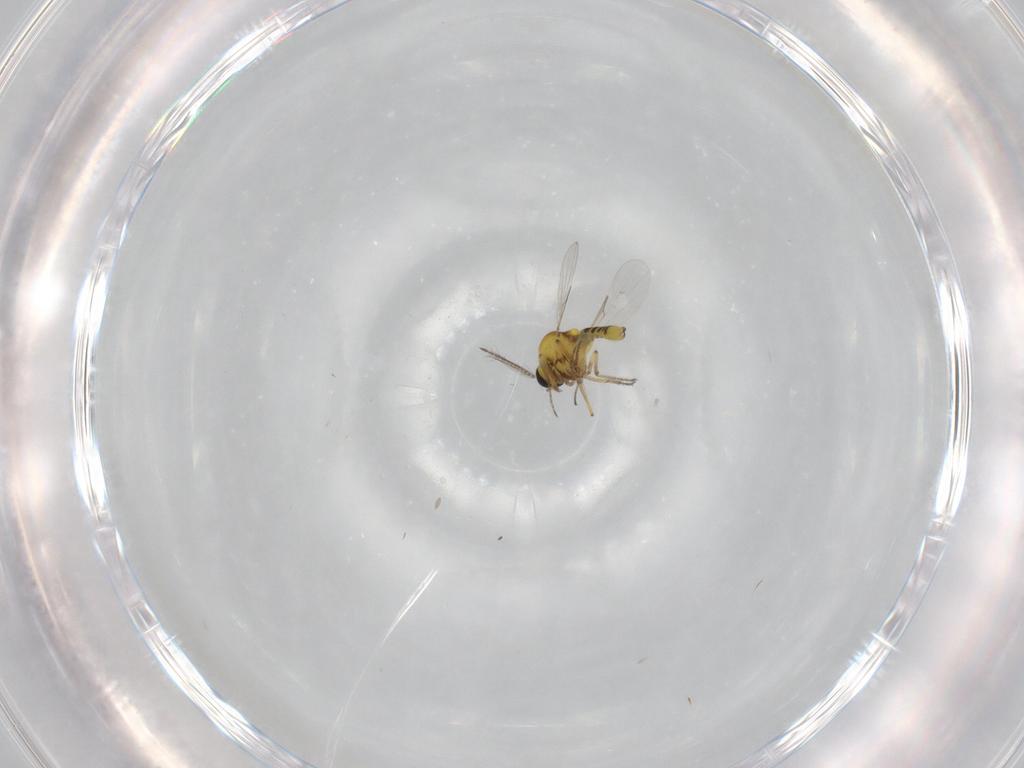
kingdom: Animalia
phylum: Arthropoda
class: Insecta
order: Diptera
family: Ceratopogonidae
